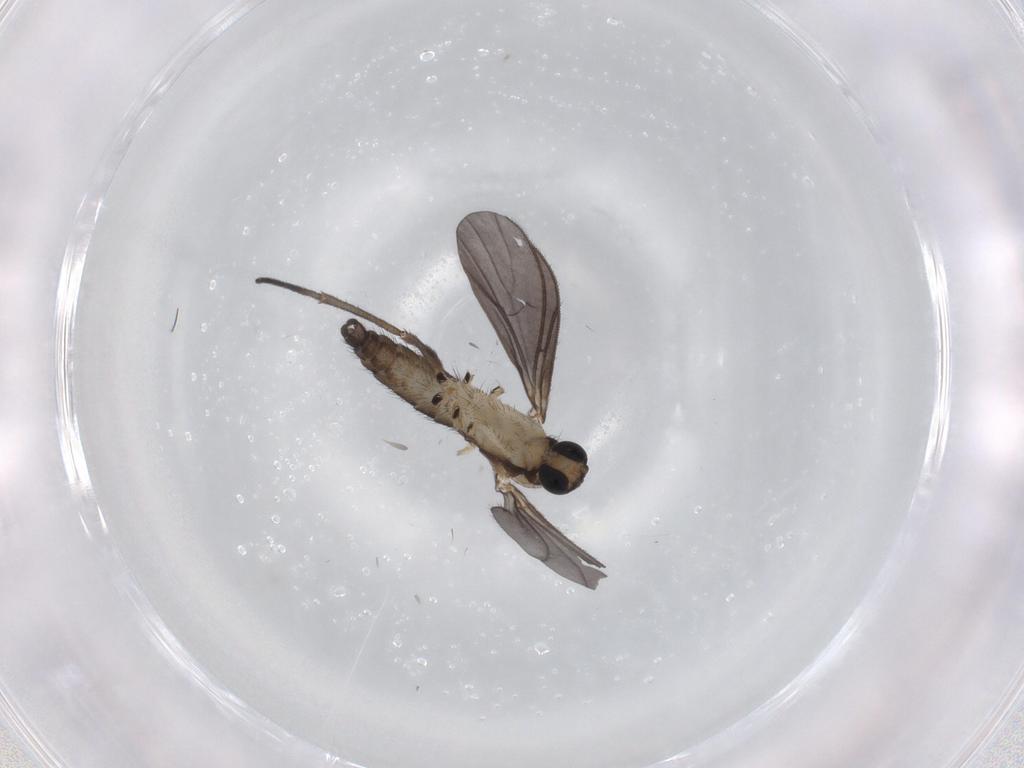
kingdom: Animalia
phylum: Arthropoda
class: Insecta
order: Diptera
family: Sciaridae
